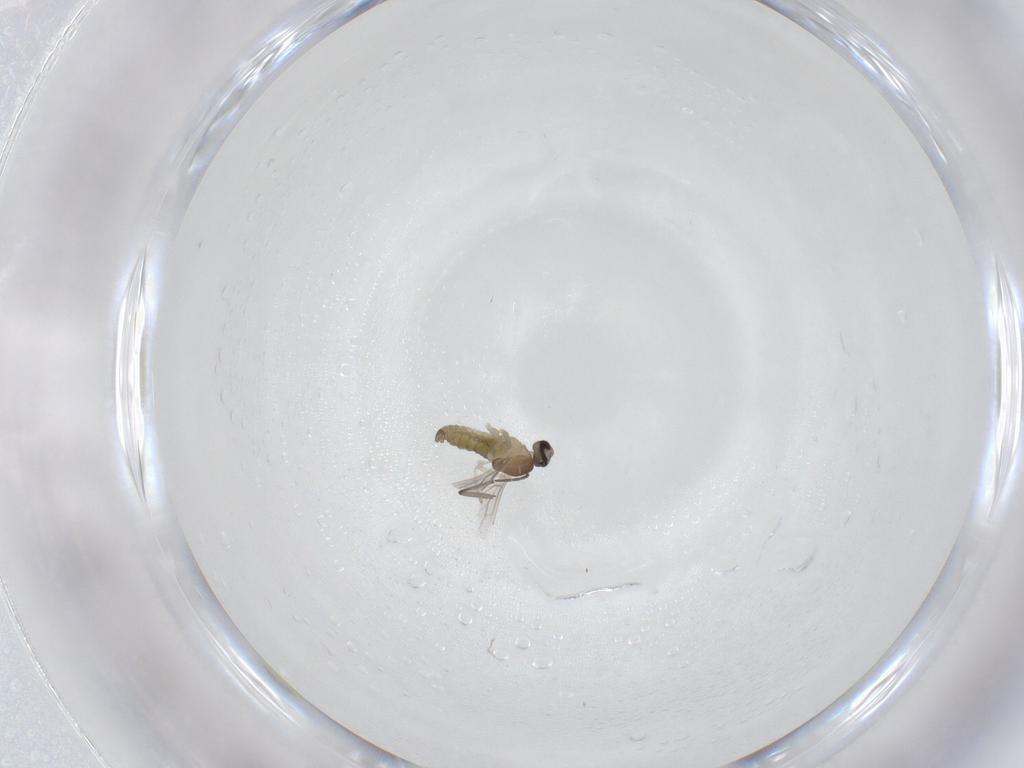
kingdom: Animalia
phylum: Arthropoda
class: Insecta
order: Diptera
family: Cecidomyiidae
